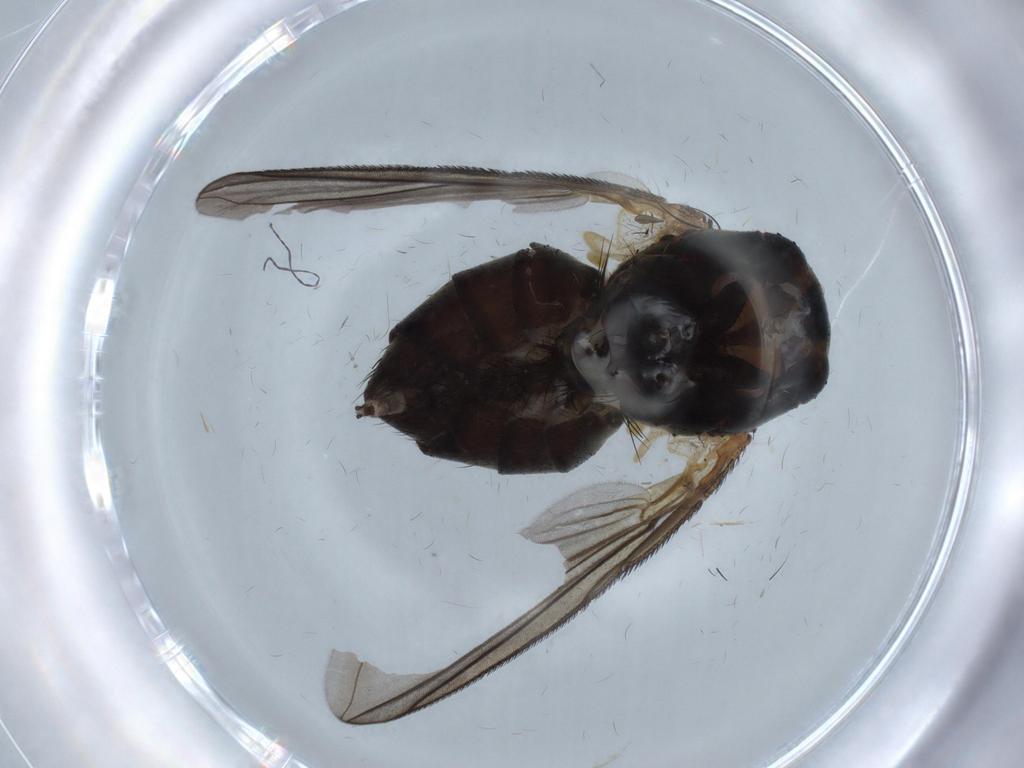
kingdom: Animalia
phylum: Arthropoda
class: Insecta
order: Diptera
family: Calliphoridae
